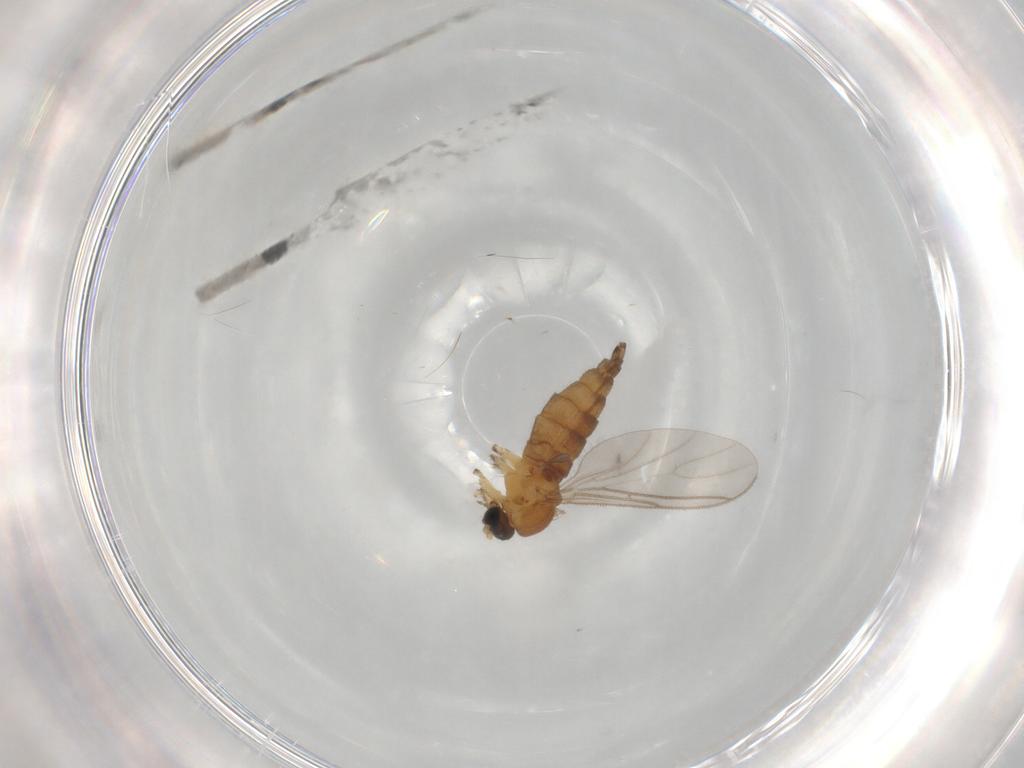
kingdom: Animalia
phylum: Arthropoda
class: Insecta
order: Diptera
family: Sciaridae
